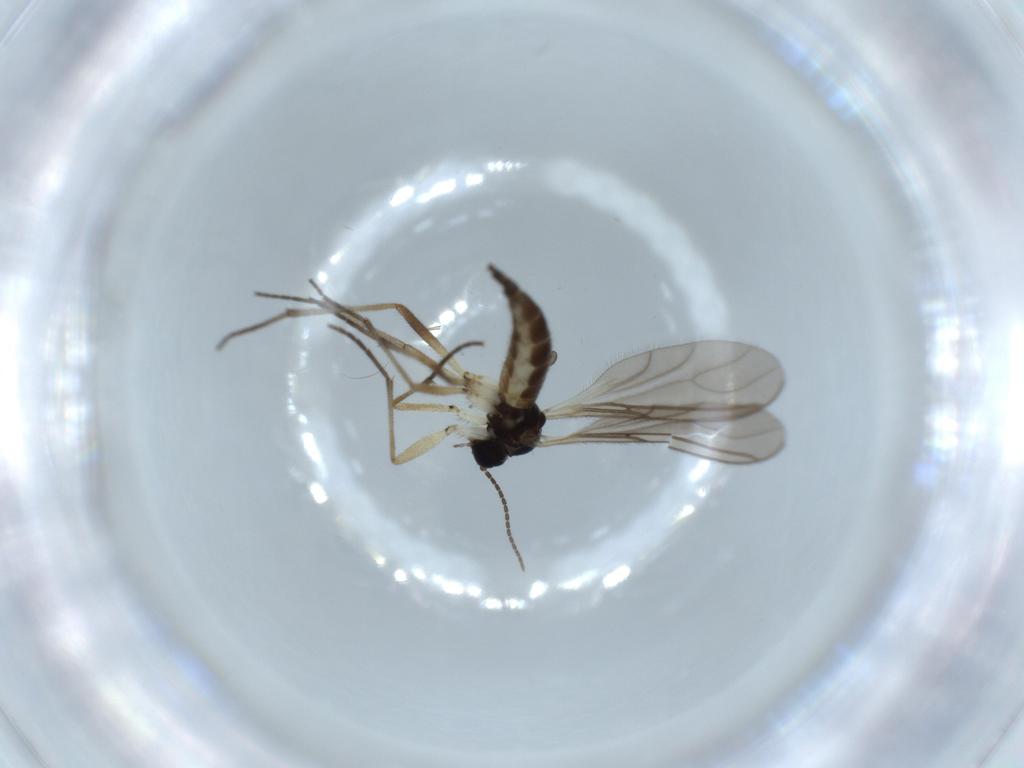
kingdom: Animalia
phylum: Arthropoda
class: Insecta
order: Diptera
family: Sciaridae
